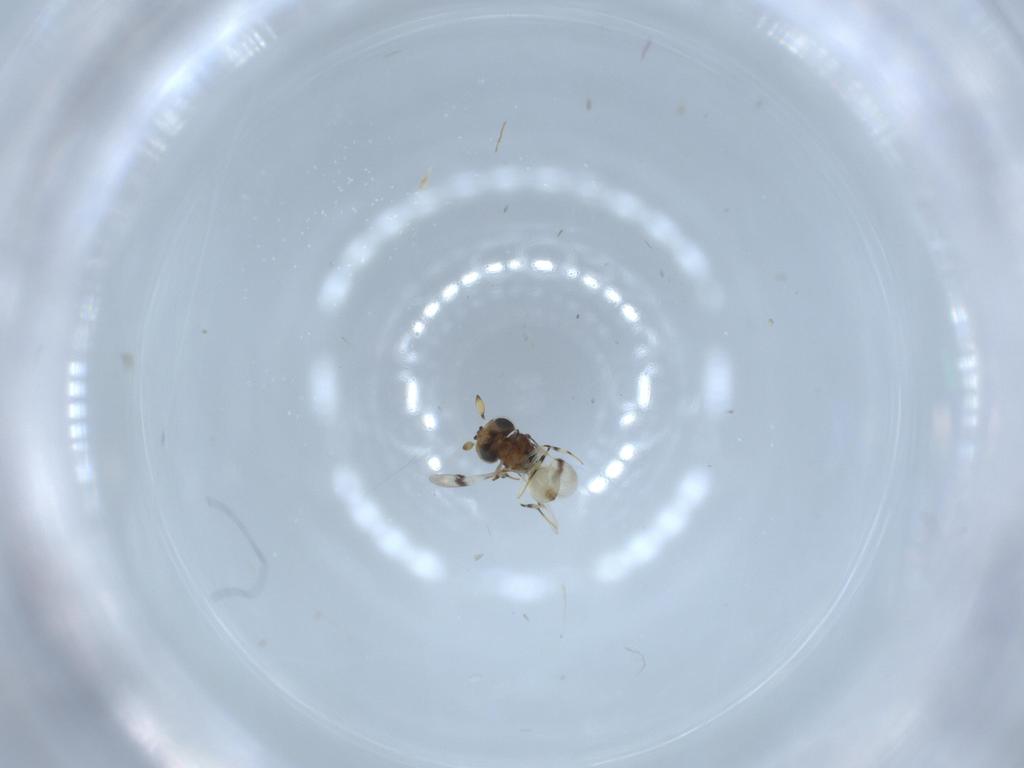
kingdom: Animalia
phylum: Arthropoda
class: Insecta
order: Hymenoptera
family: Scelionidae
